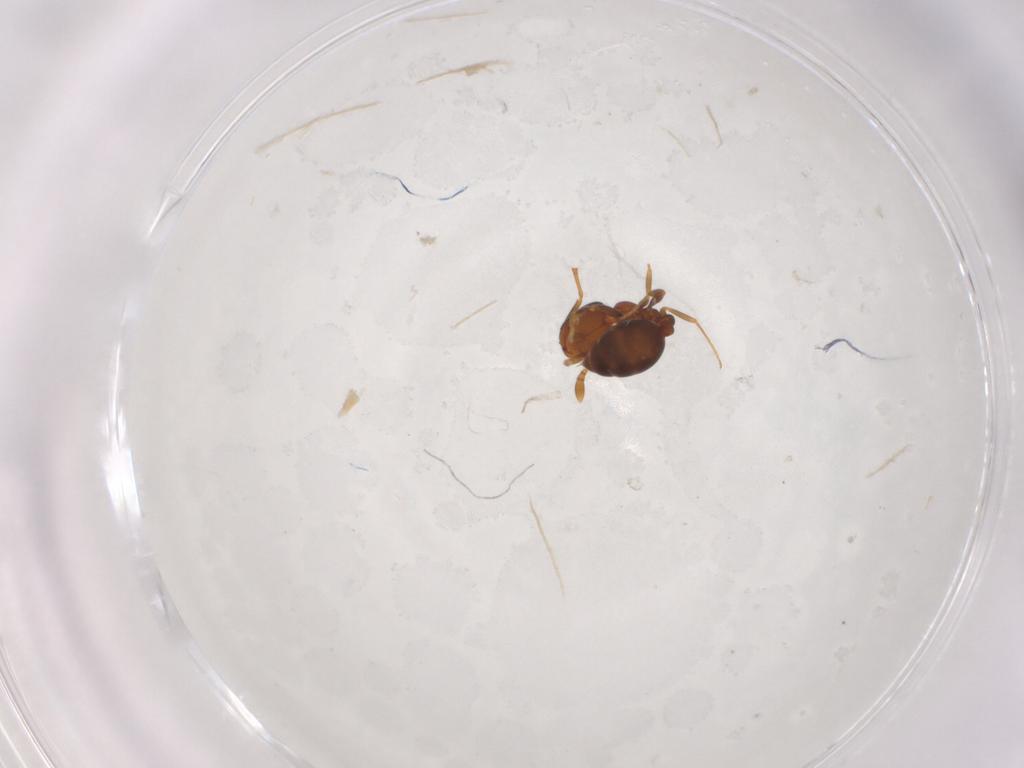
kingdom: Animalia
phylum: Arthropoda
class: Insecta
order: Hymenoptera
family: Formicidae
